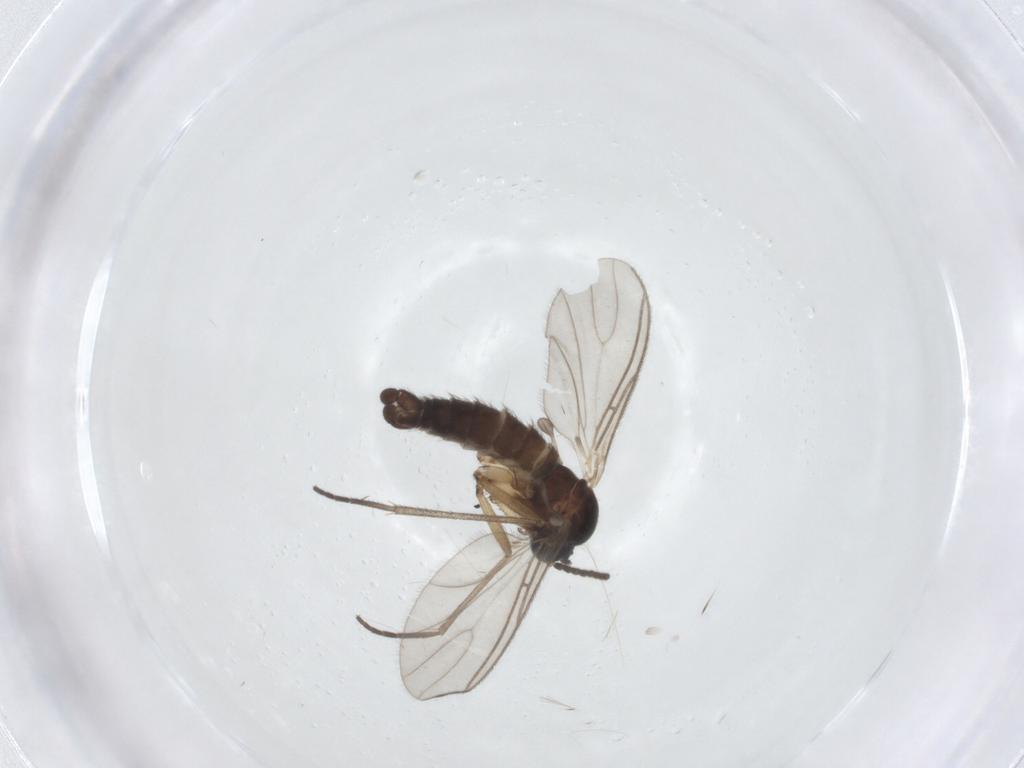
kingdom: Animalia
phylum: Arthropoda
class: Insecta
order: Diptera
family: Sciaridae
